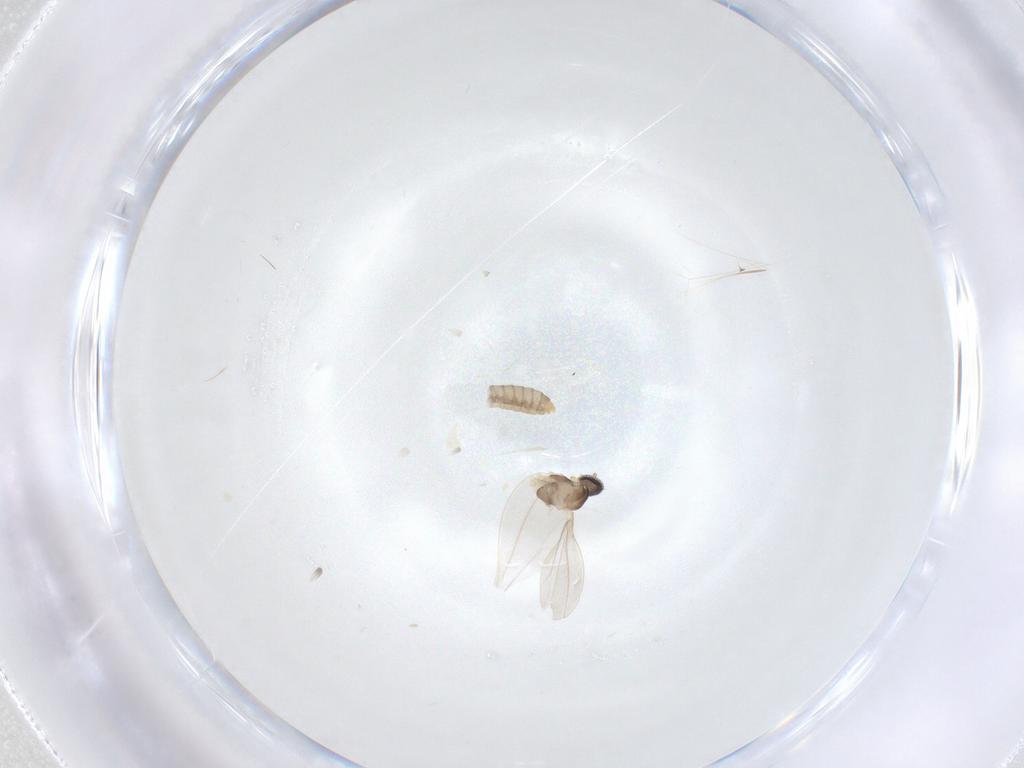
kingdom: Animalia
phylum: Arthropoda
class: Insecta
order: Diptera
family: Cecidomyiidae
